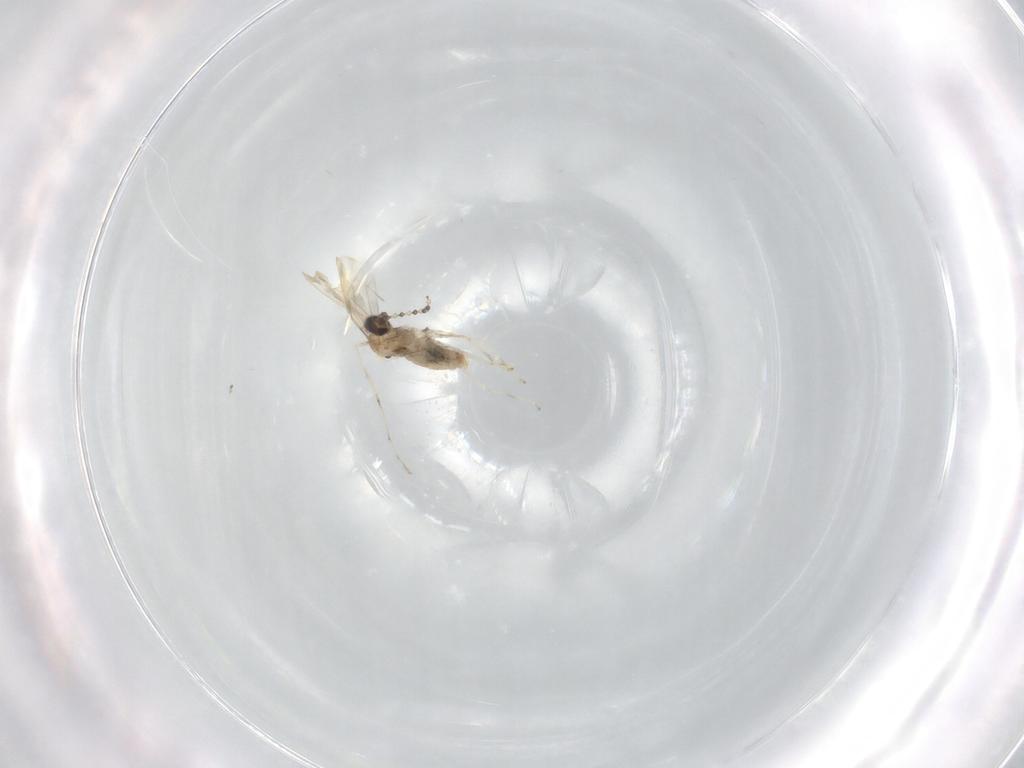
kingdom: Animalia
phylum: Arthropoda
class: Insecta
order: Diptera
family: Cecidomyiidae
